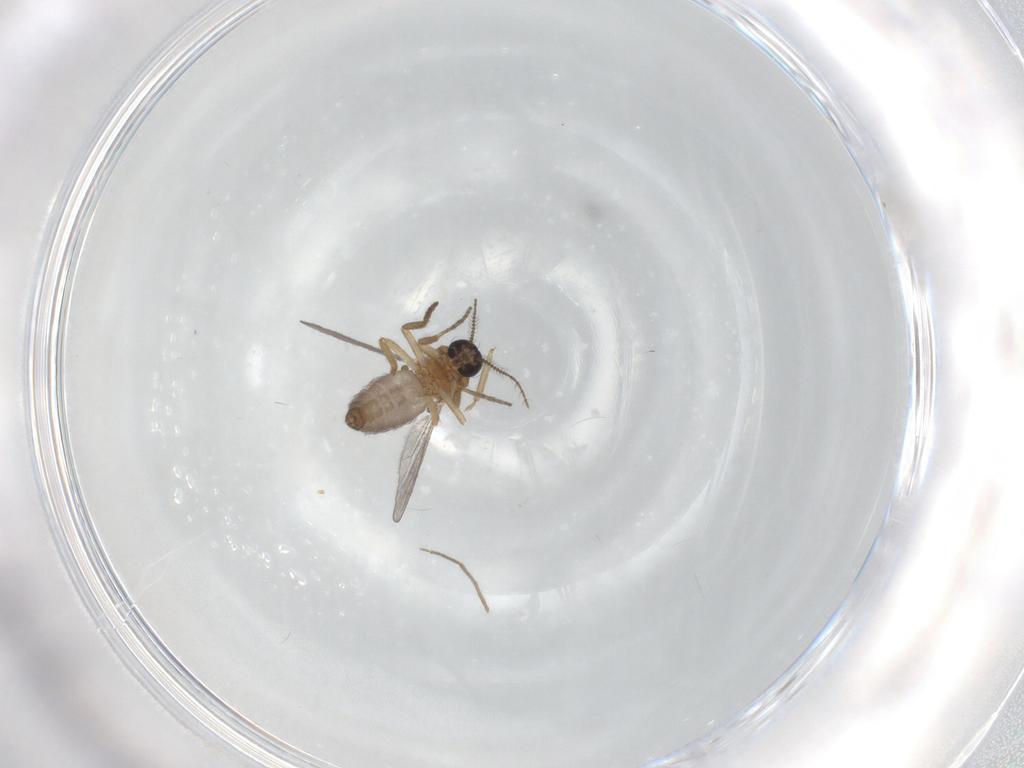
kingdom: Animalia
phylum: Arthropoda
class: Insecta
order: Diptera
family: Ceratopogonidae
